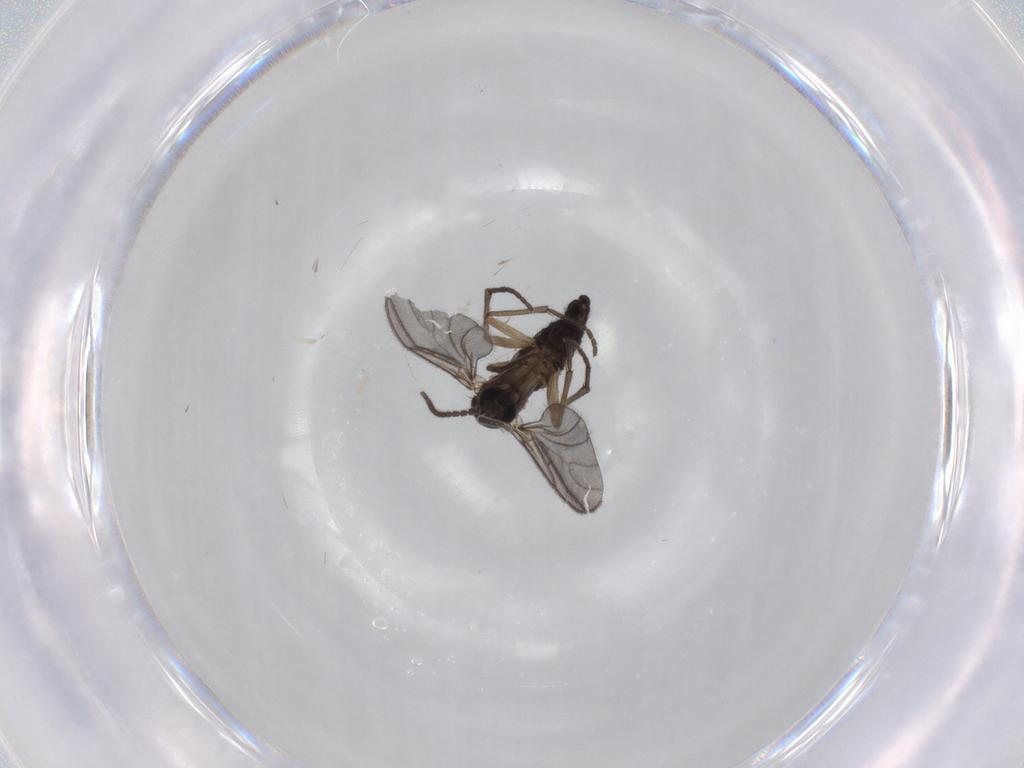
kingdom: Animalia
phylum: Arthropoda
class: Insecta
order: Diptera
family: Sciaridae
